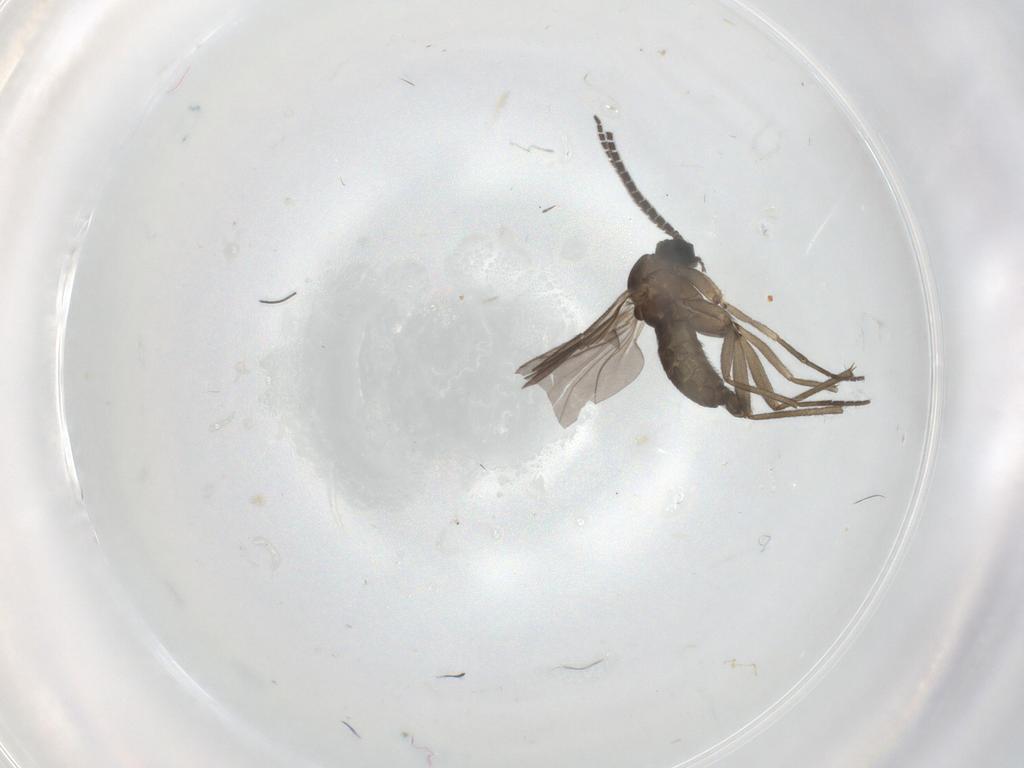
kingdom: Animalia
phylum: Arthropoda
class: Insecta
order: Diptera
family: Sciaridae
